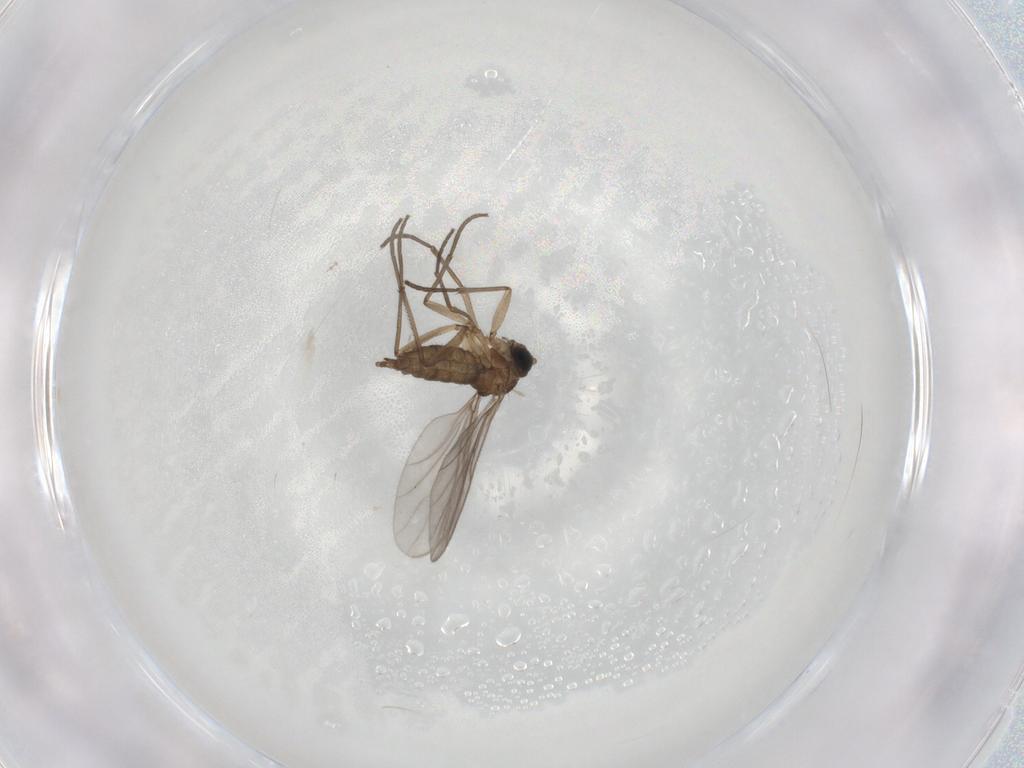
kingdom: Animalia
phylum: Arthropoda
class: Insecta
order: Diptera
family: Sciaridae
